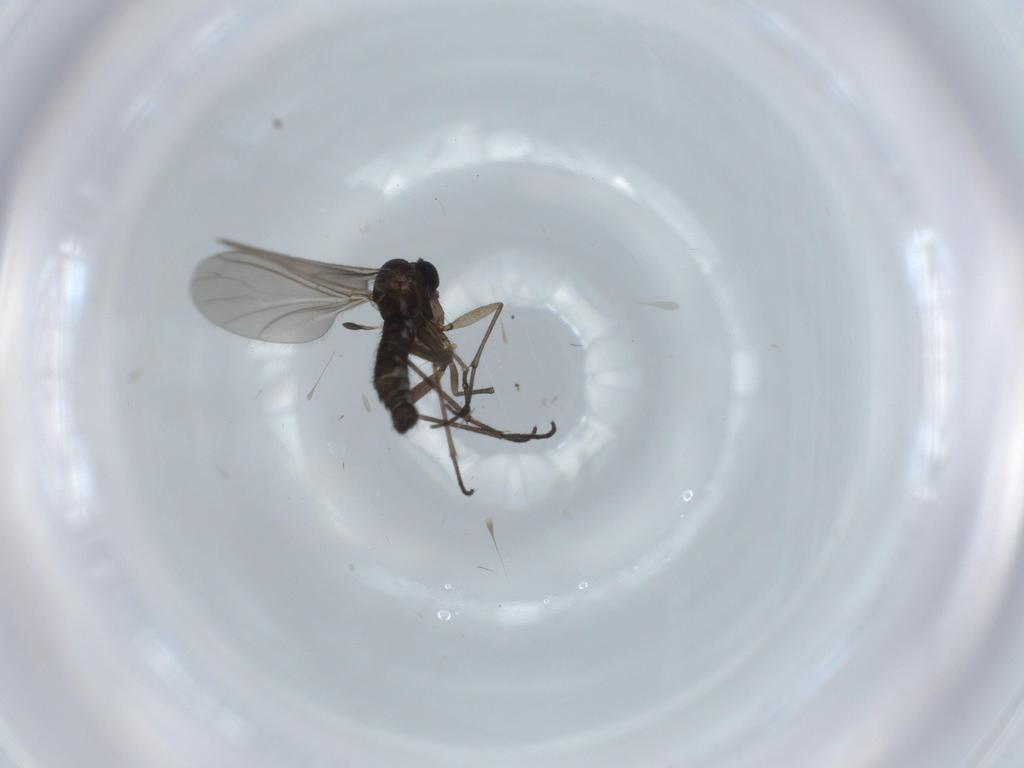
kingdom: Animalia
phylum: Arthropoda
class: Insecta
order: Diptera
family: Sciaridae
